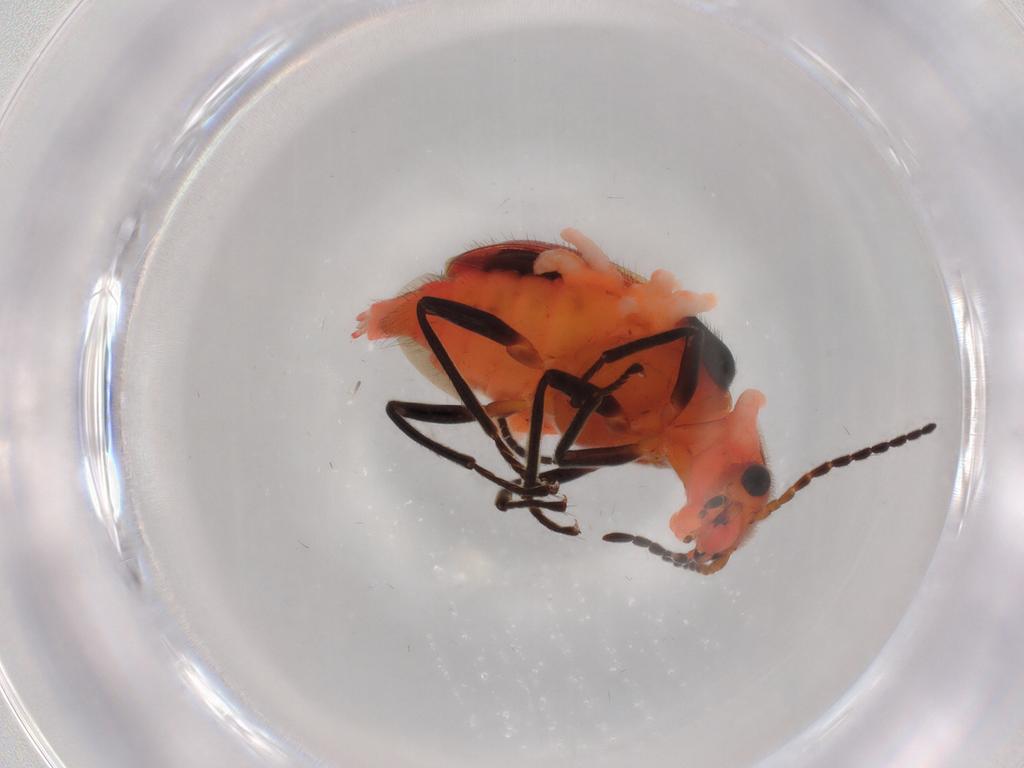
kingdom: Animalia
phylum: Arthropoda
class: Insecta
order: Coleoptera
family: Melyridae
